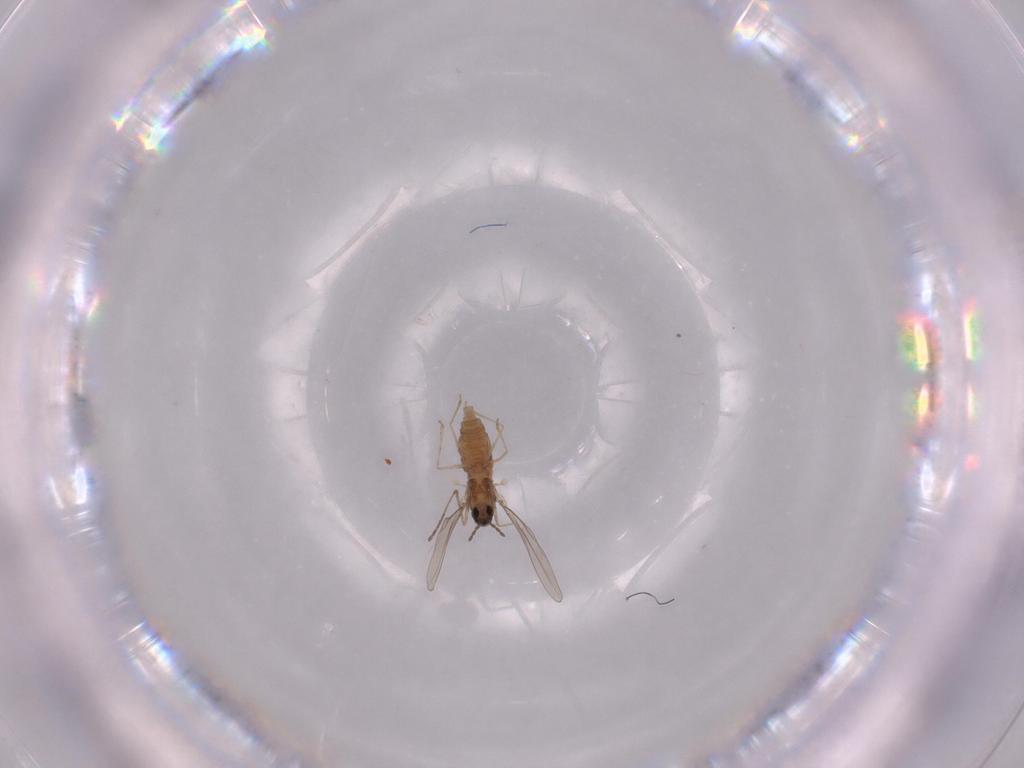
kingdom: Animalia
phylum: Arthropoda
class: Insecta
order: Diptera
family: Cecidomyiidae
